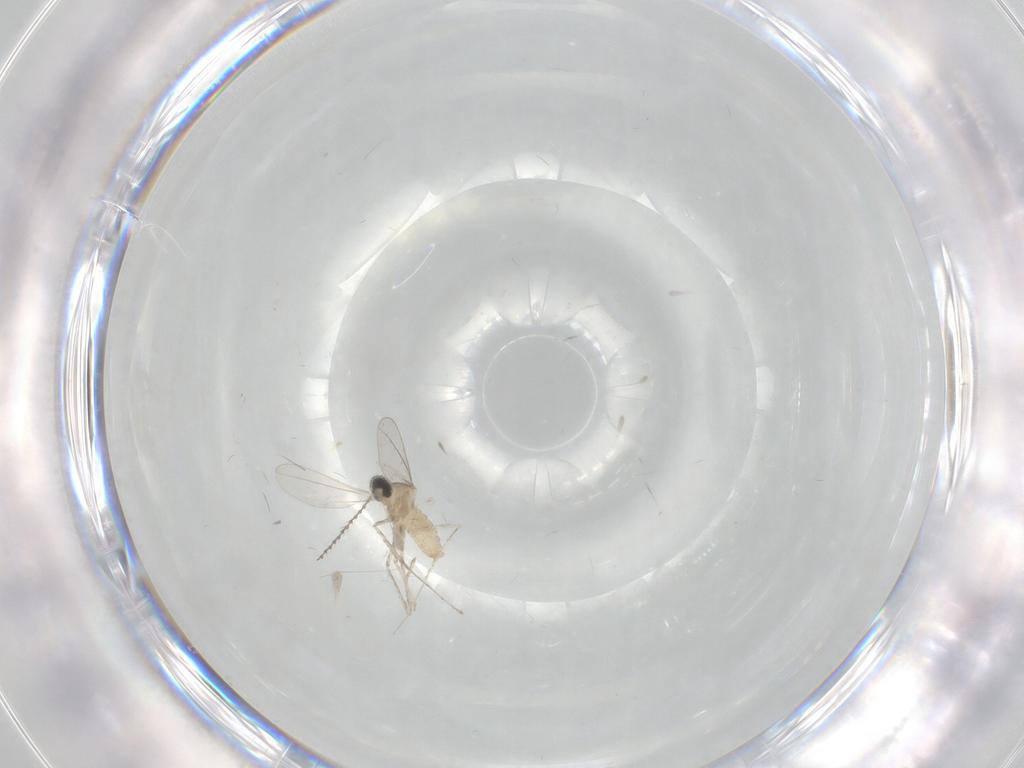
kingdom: Animalia
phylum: Arthropoda
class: Insecta
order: Diptera
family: Cecidomyiidae
